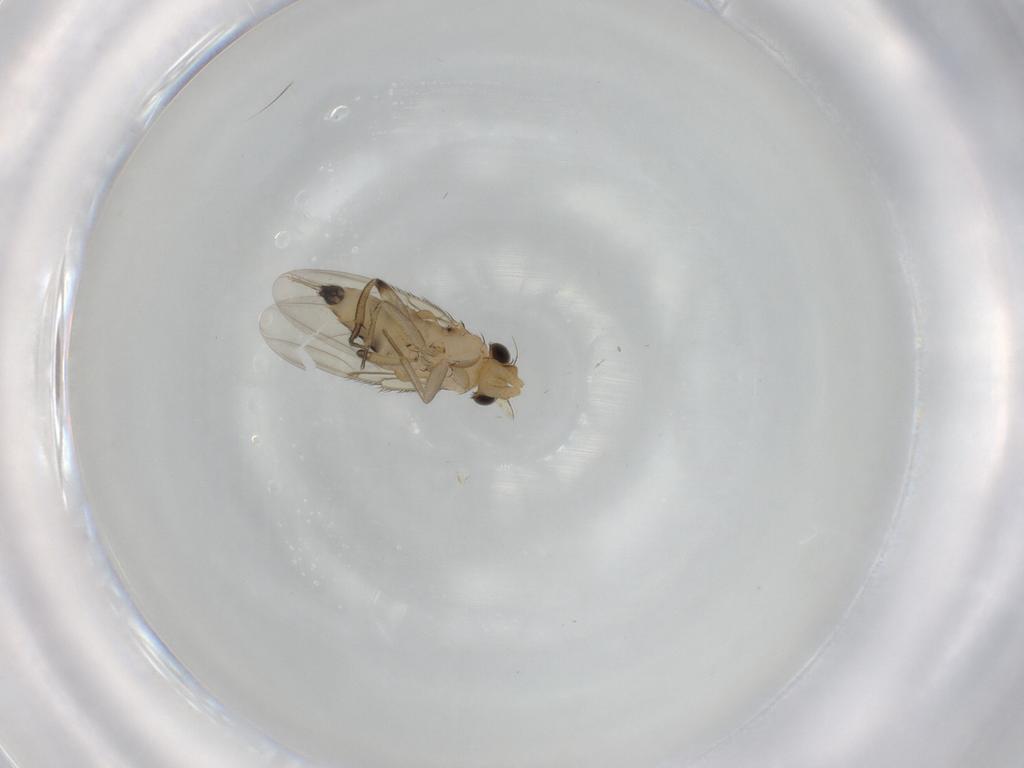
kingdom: Animalia
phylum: Arthropoda
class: Insecta
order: Diptera
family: Phoridae
